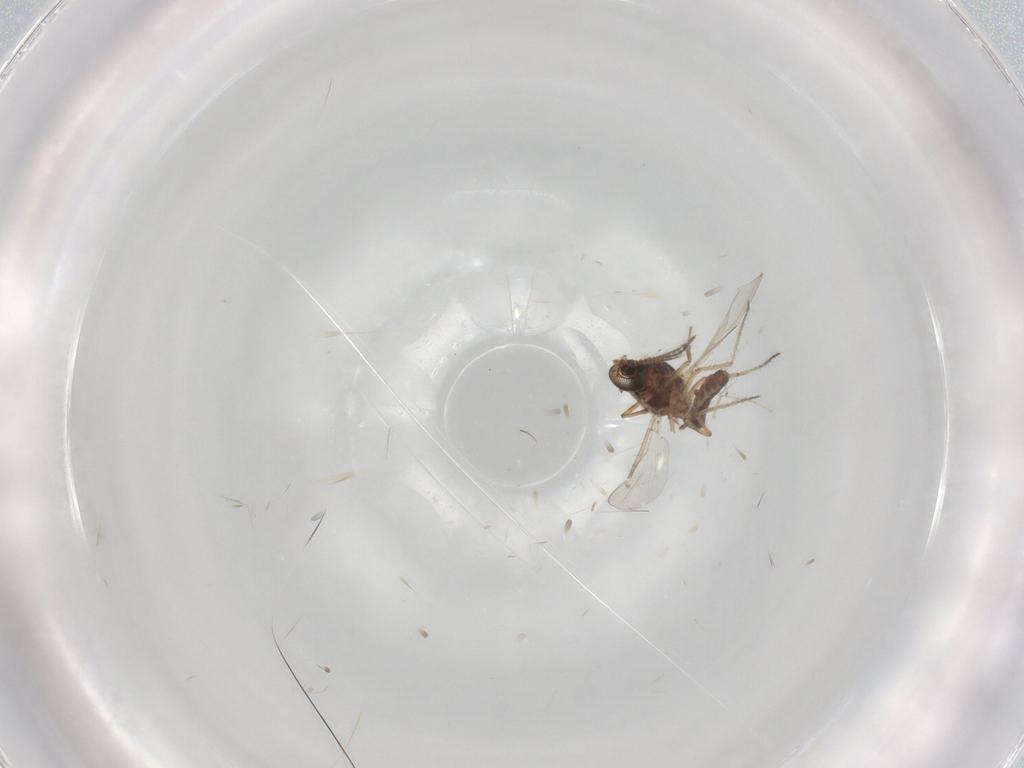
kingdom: Animalia
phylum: Arthropoda
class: Insecta
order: Diptera
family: Ceratopogonidae
